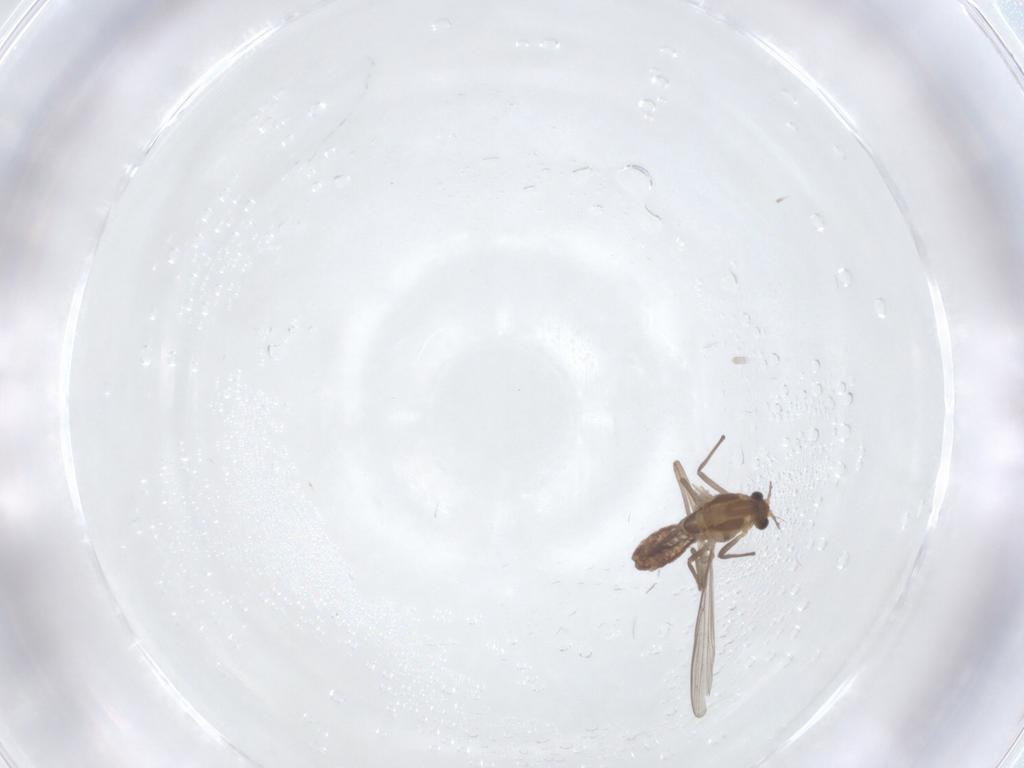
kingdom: Animalia
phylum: Arthropoda
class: Insecta
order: Diptera
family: Chironomidae
